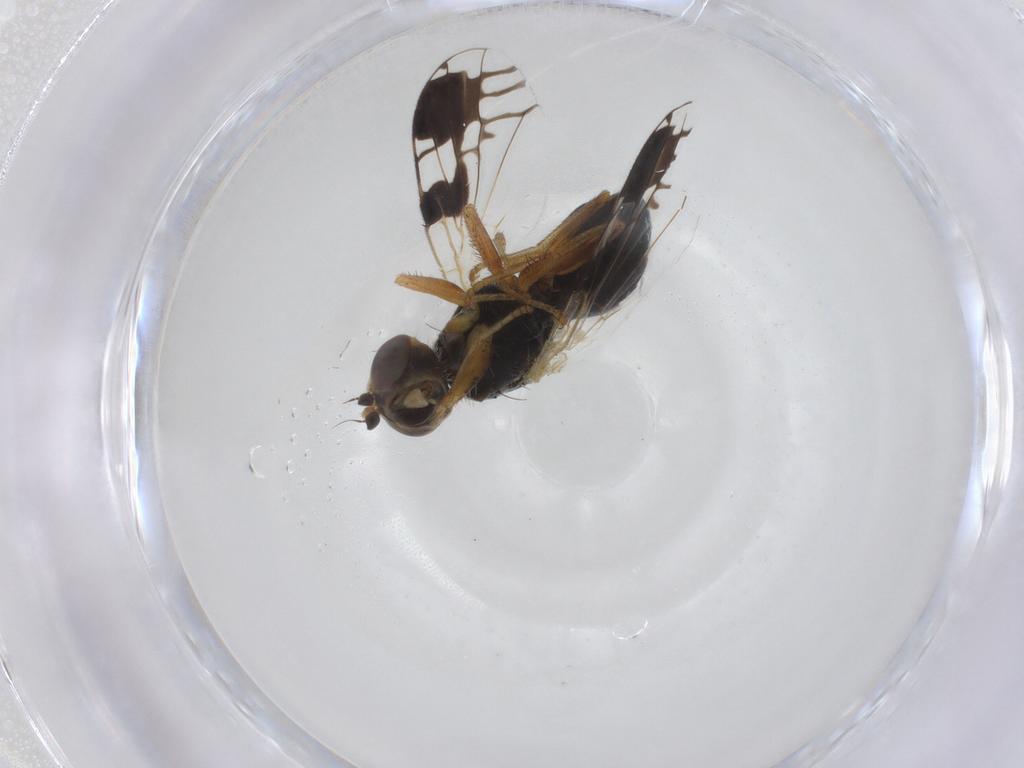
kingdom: Animalia
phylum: Arthropoda
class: Insecta
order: Diptera
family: Tephritidae
